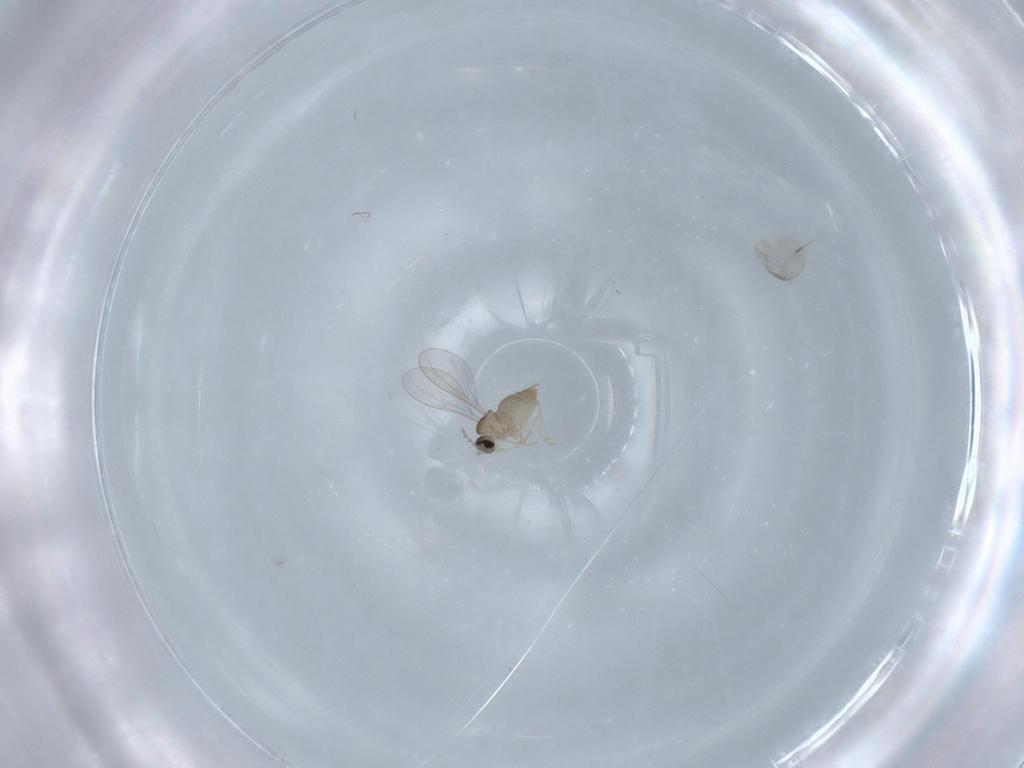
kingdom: Animalia
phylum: Arthropoda
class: Insecta
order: Diptera
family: Cecidomyiidae
